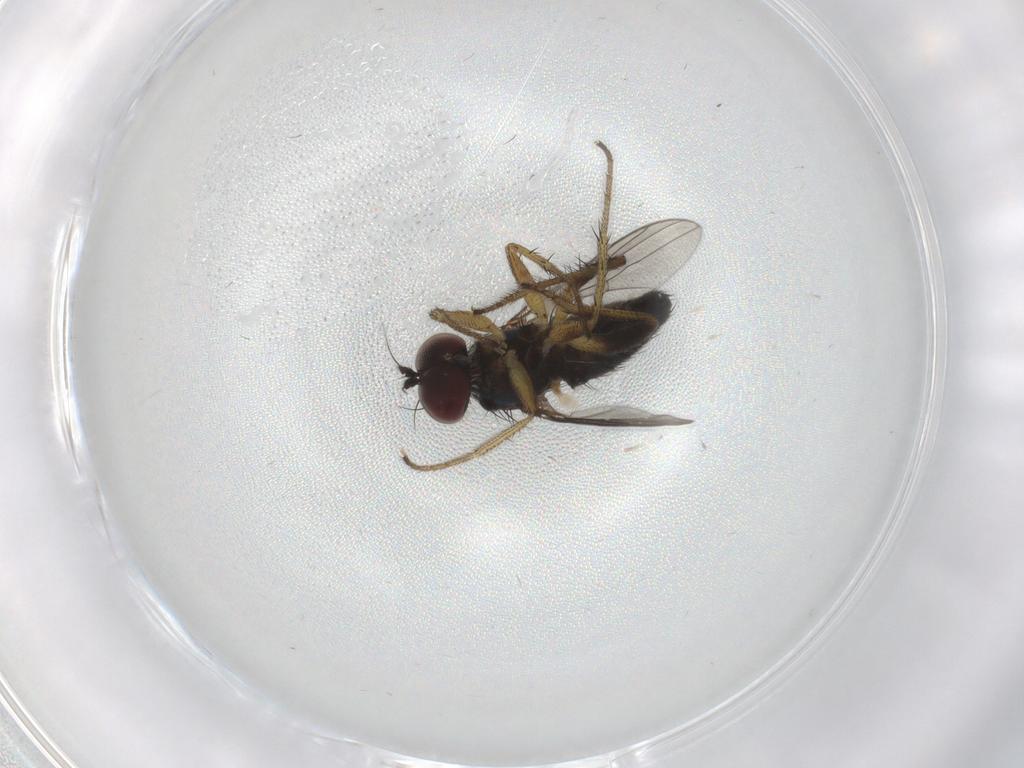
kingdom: Animalia
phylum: Arthropoda
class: Insecta
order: Diptera
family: Dolichopodidae
